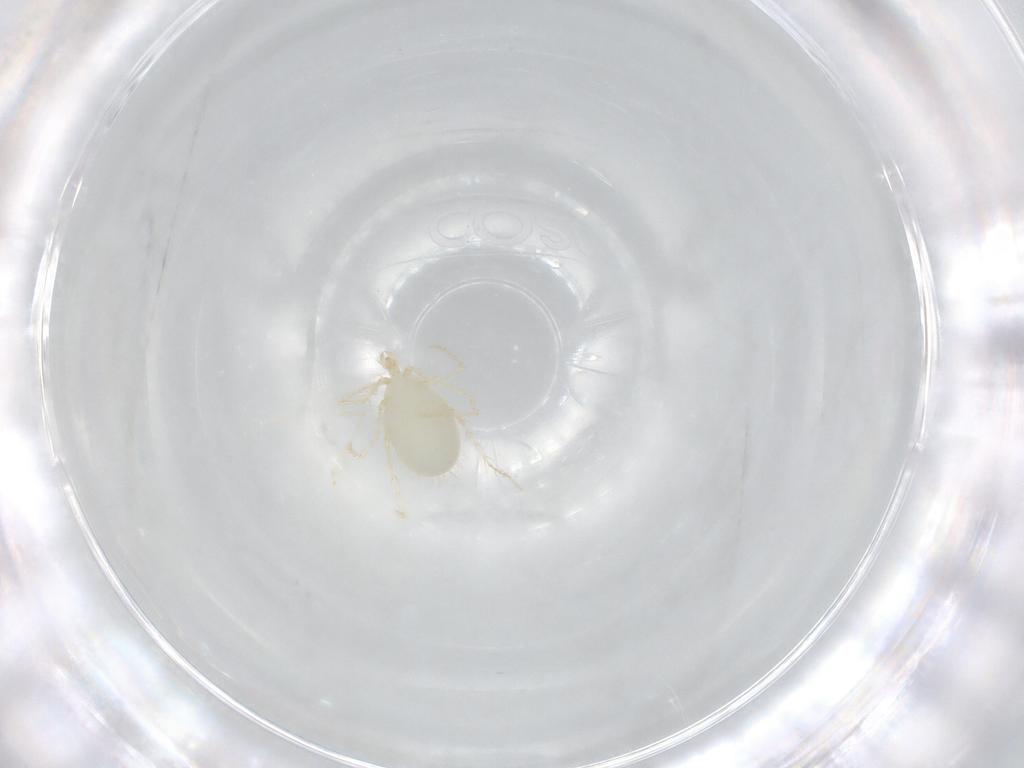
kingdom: Animalia
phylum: Arthropoda
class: Arachnida
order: Trombidiformes
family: Erythraeidae
